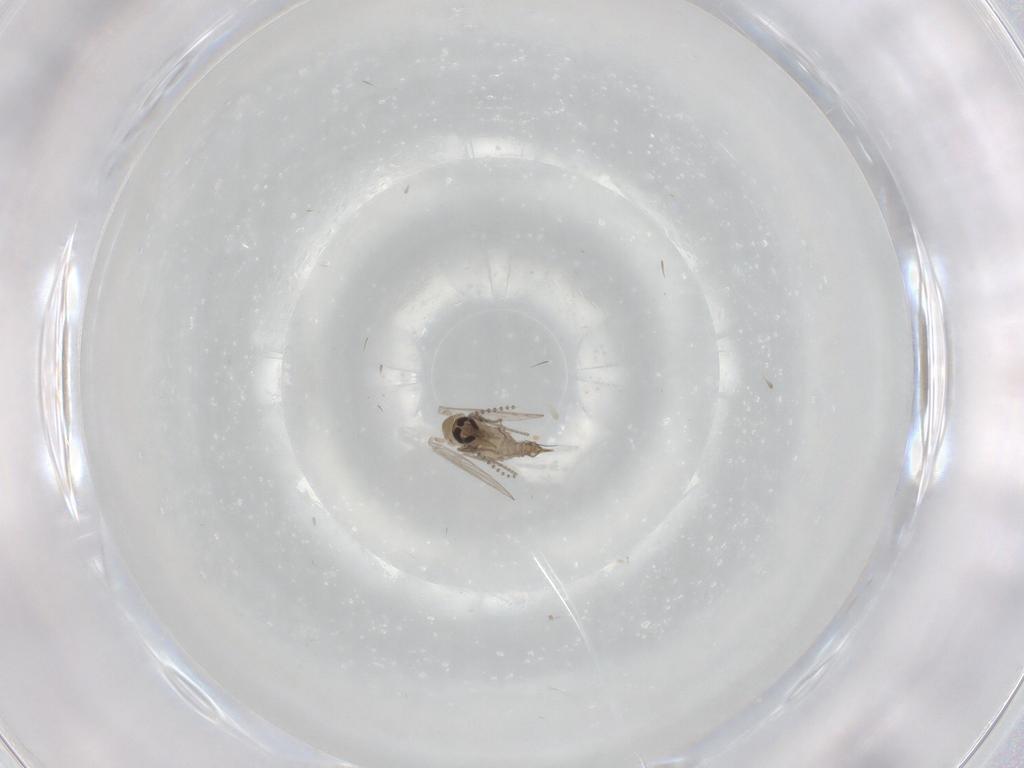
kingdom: Animalia
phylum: Arthropoda
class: Insecta
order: Diptera
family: Psychodidae
